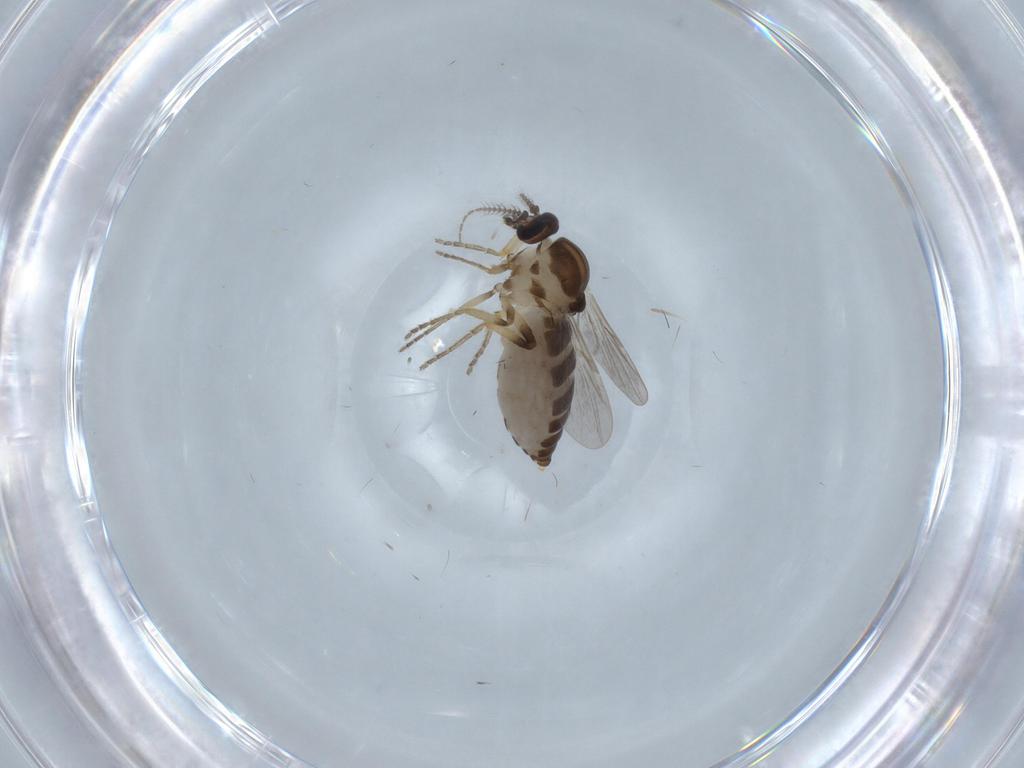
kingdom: Animalia
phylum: Arthropoda
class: Insecta
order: Diptera
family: Ceratopogonidae
